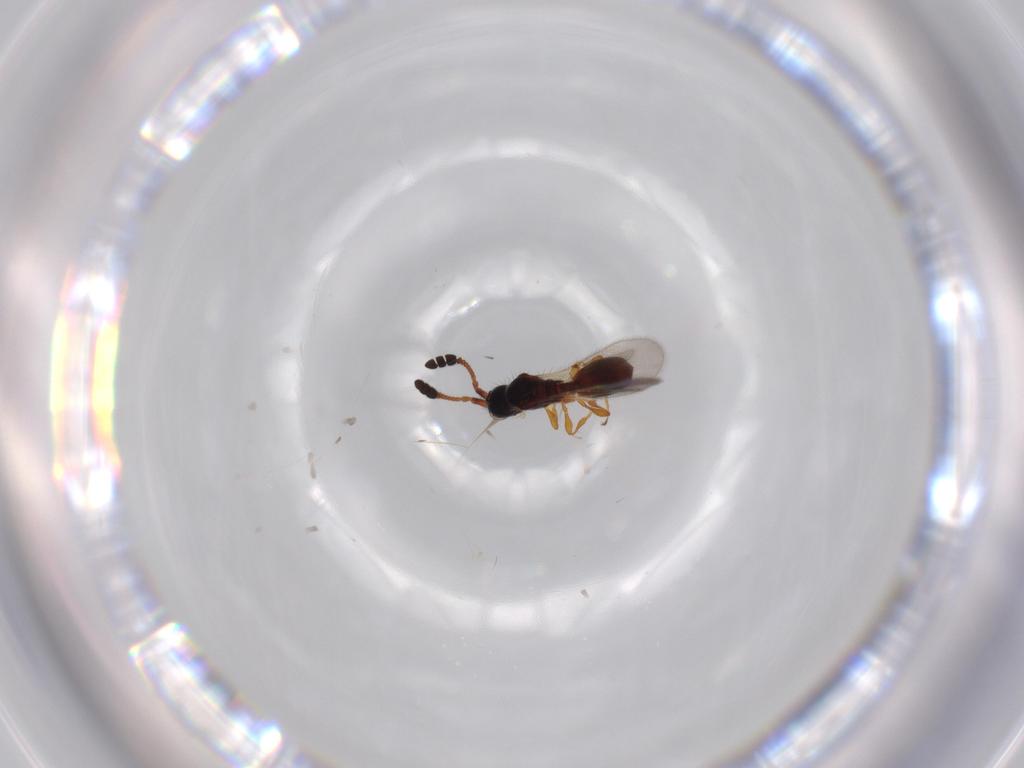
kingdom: Animalia
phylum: Arthropoda
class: Insecta
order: Hymenoptera
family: Diapriidae
